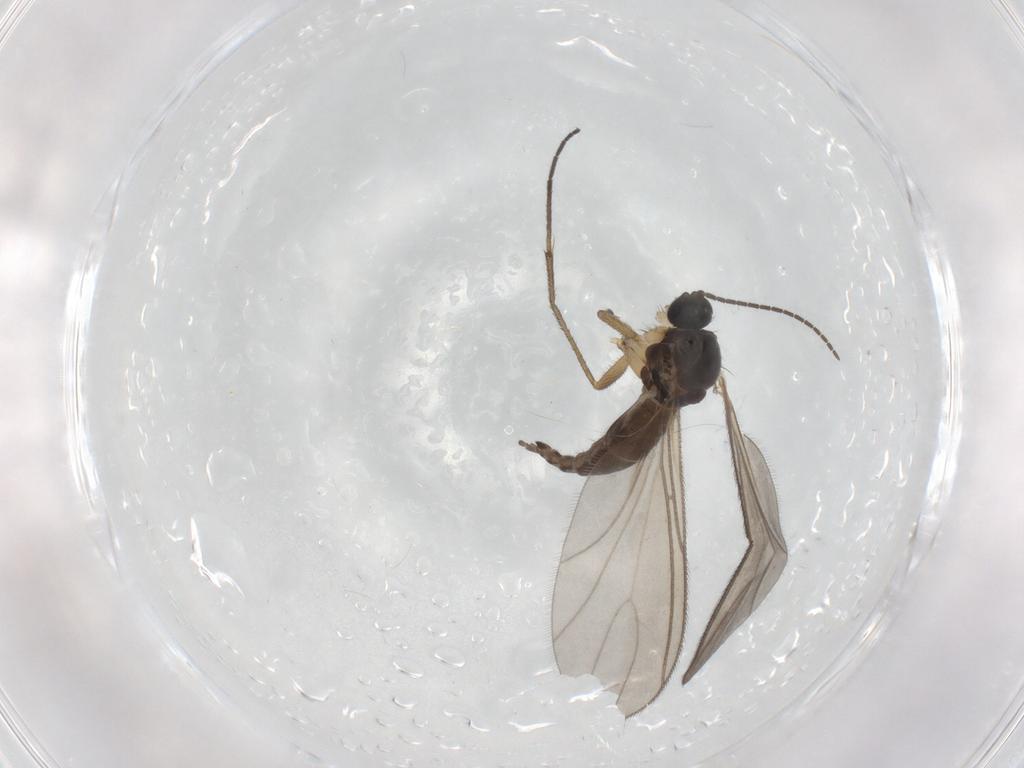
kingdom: Animalia
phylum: Arthropoda
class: Insecta
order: Diptera
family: Sciaridae
